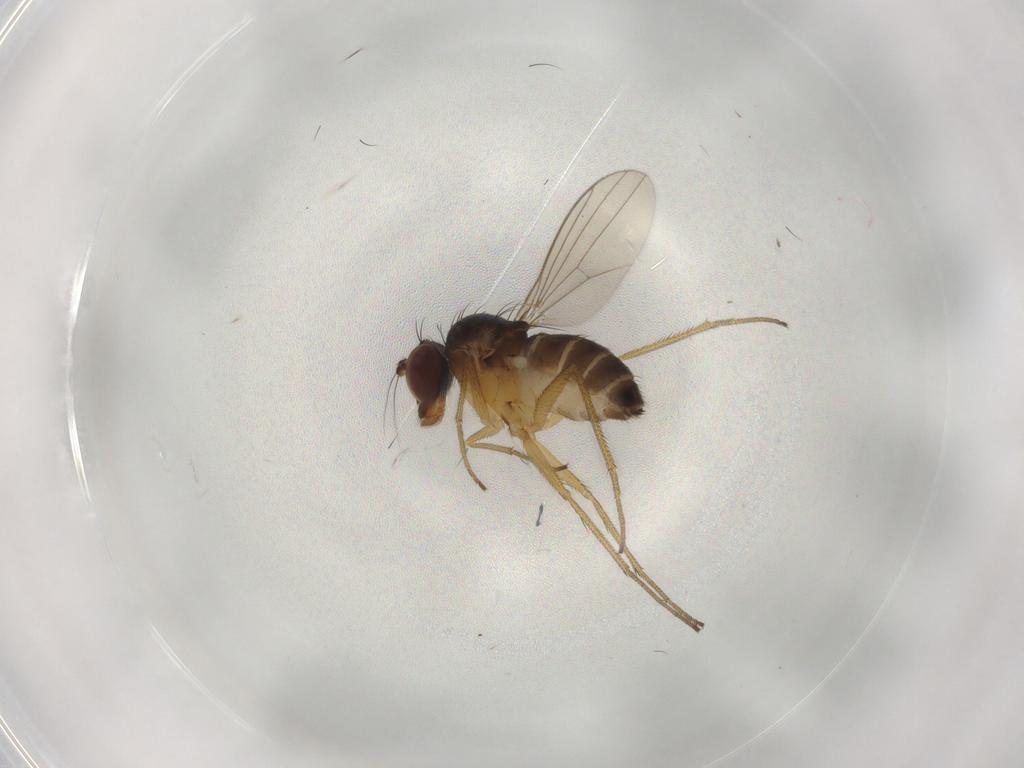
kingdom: Animalia
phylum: Arthropoda
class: Insecta
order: Diptera
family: Dolichopodidae
